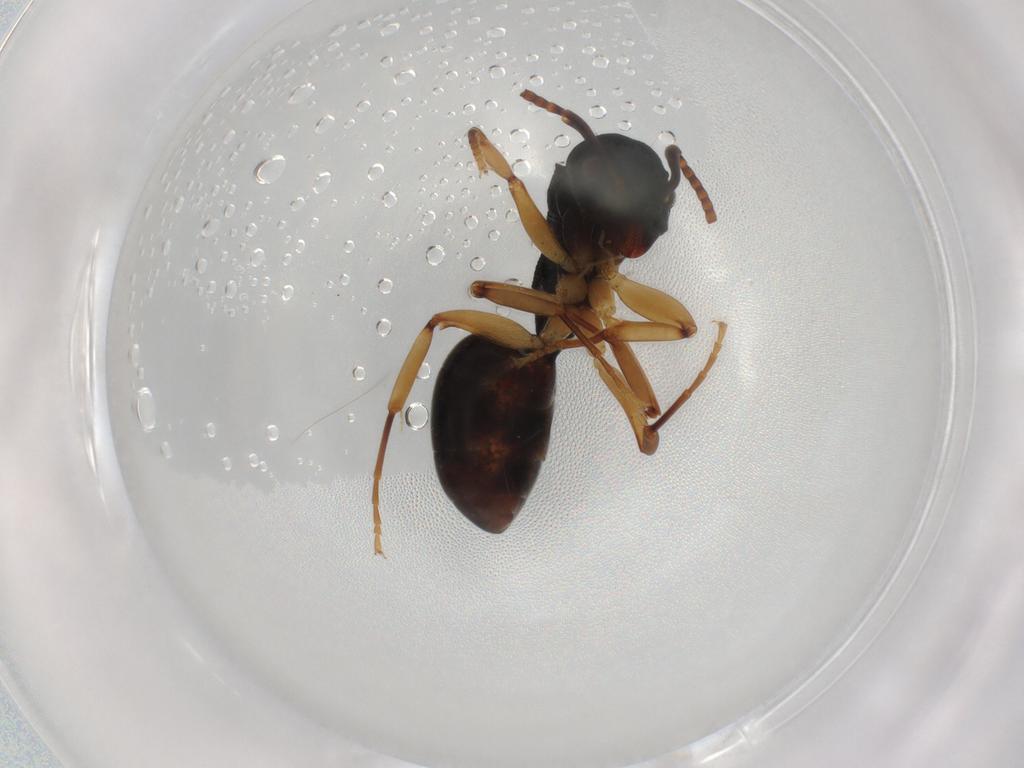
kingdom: Animalia
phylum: Arthropoda
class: Insecta
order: Hymenoptera
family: Formicidae
